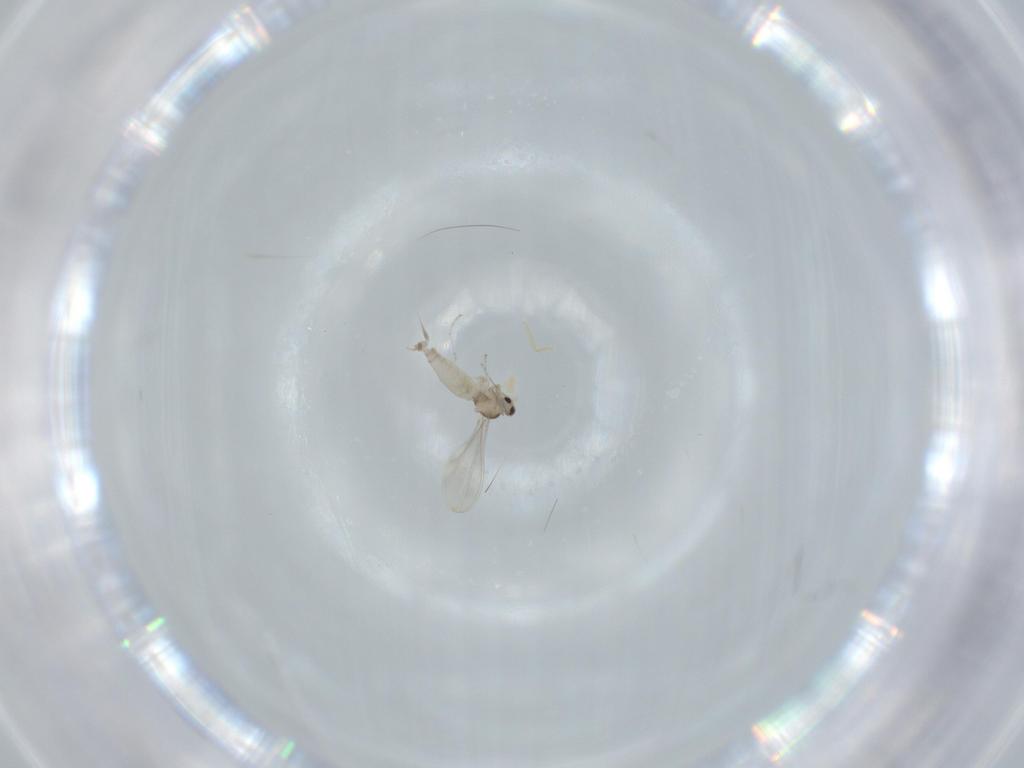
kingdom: Animalia
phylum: Arthropoda
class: Insecta
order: Diptera
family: Cecidomyiidae
